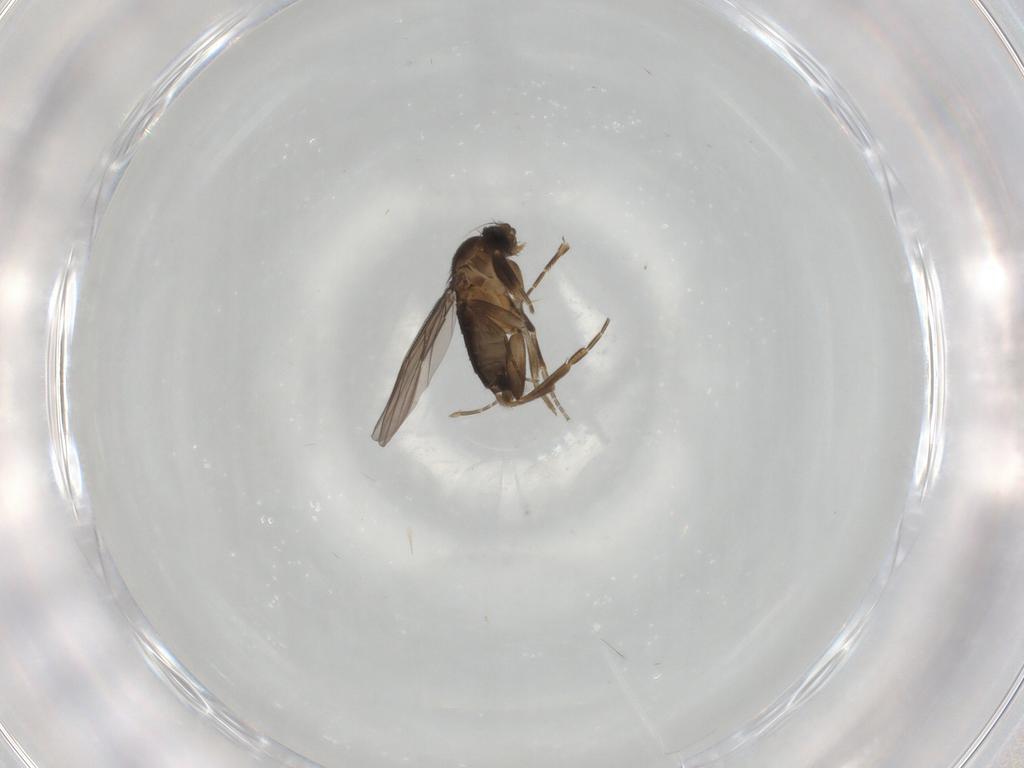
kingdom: Animalia
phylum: Arthropoda
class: Insecta
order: Diptera
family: Phoridae
